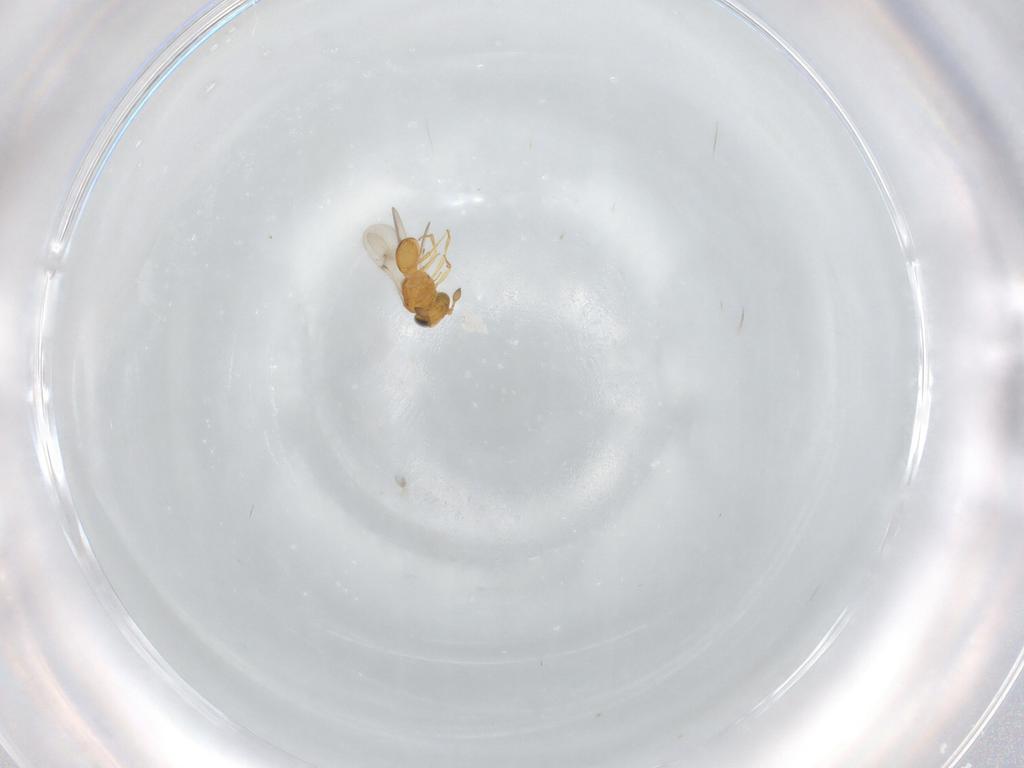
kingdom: Animalia
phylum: Arthropoda
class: Insecta
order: Hymenoptera
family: Scelionidae
